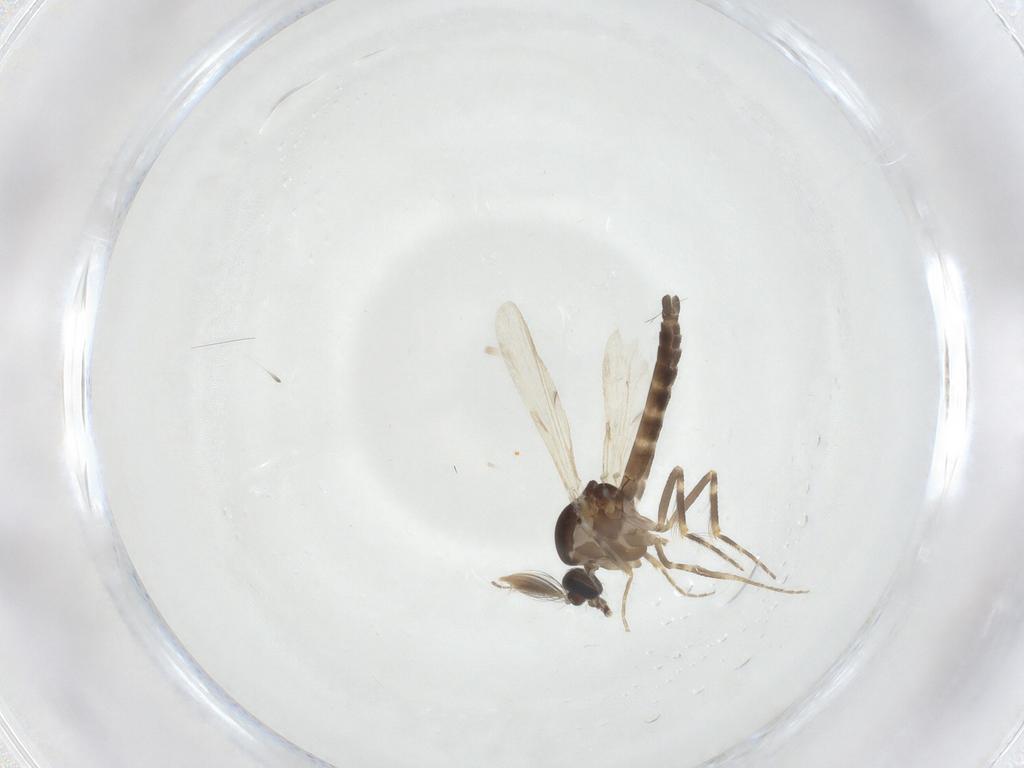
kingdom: Animalia
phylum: Arthropoda
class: Insecta
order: Diptera
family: Ceratopogonidae
